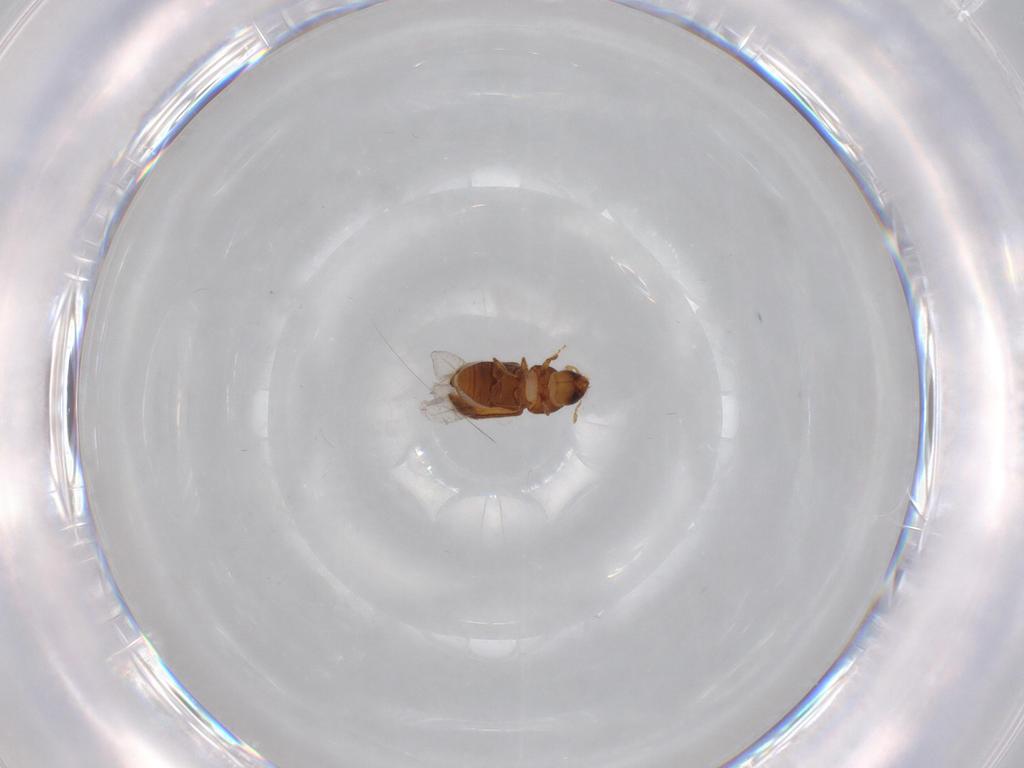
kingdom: Animalia
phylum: Arthropoda
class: Insecta
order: Coleoptera
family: Curculionidae
